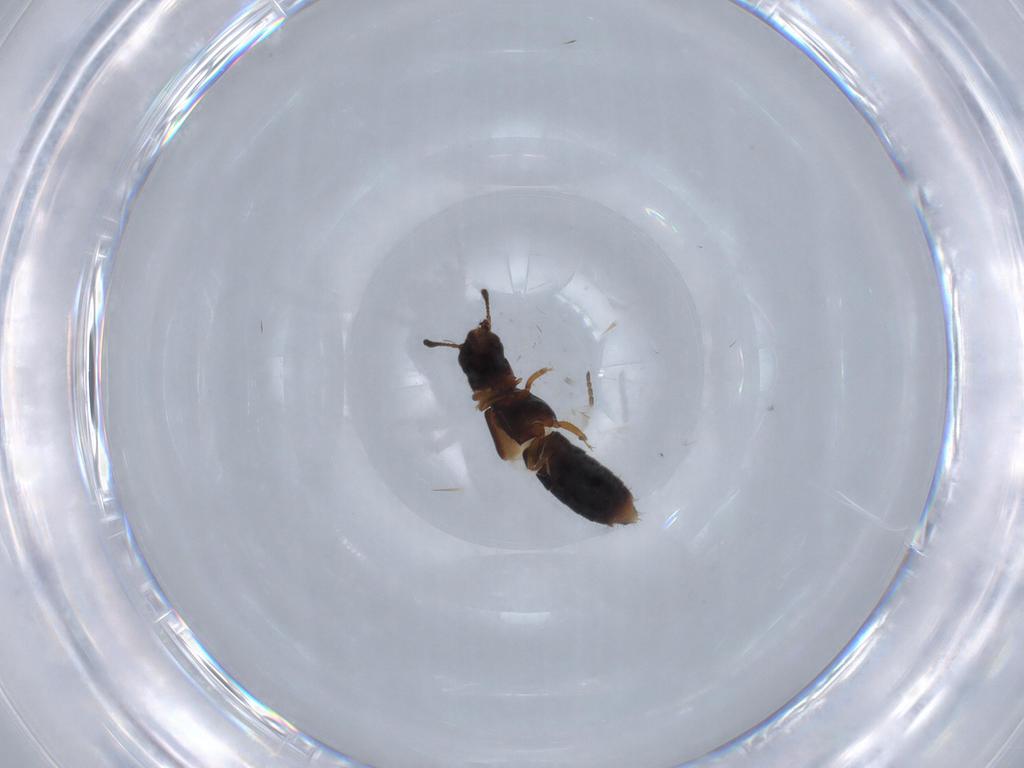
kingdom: Animalia
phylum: Arthropoda
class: Insecta
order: Coleoptera
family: Staphylinidae
